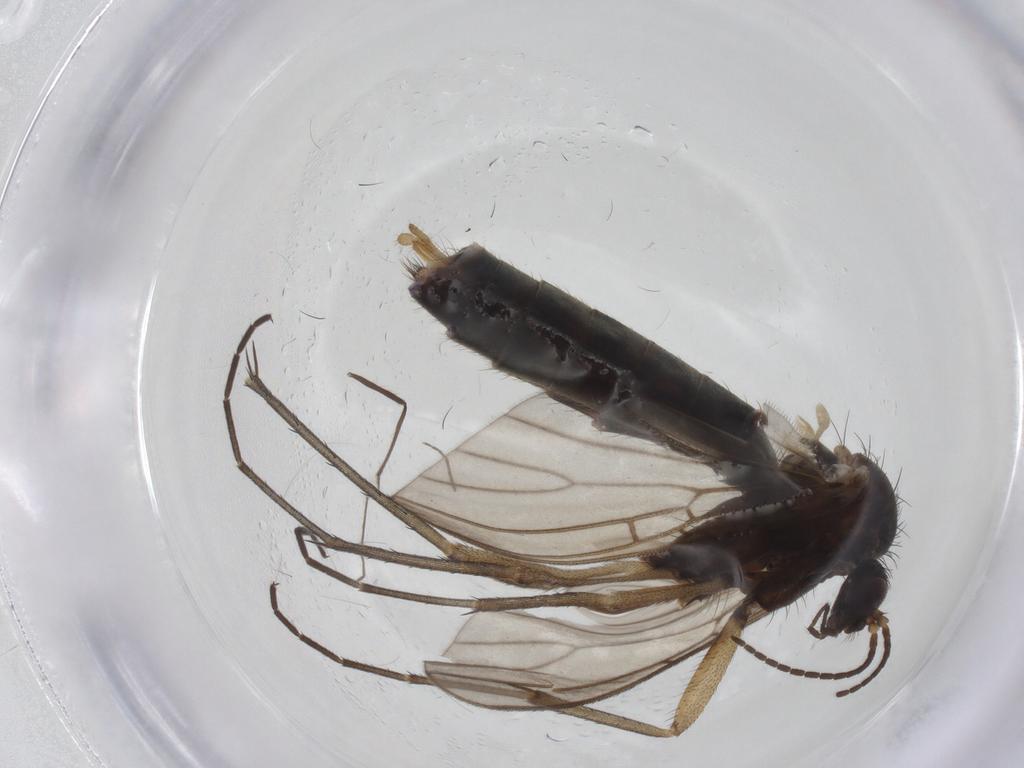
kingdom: Animalia
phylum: Arthropoda
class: Insecta
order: Diptera
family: Mycetophilidae
